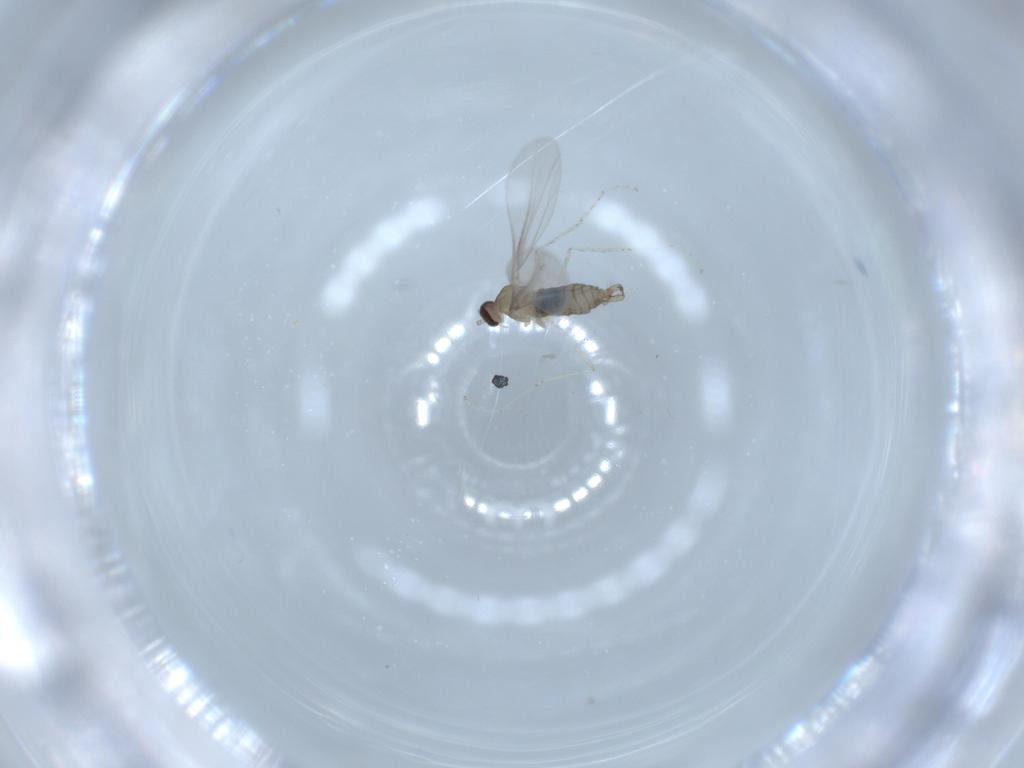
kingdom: Animalia
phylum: Arthropoda
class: Insecta
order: Diptera
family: Cecidomyiidae
